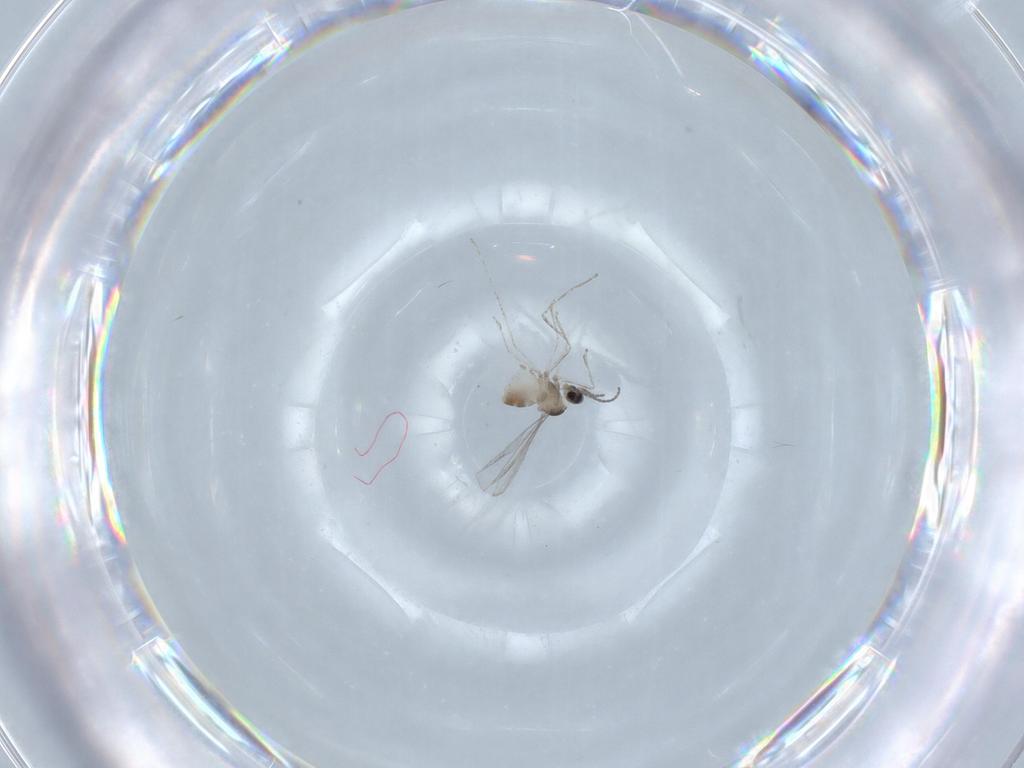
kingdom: Animalia
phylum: Arthropoda
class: Insecta
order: Diptera
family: Cecidomyiidae
